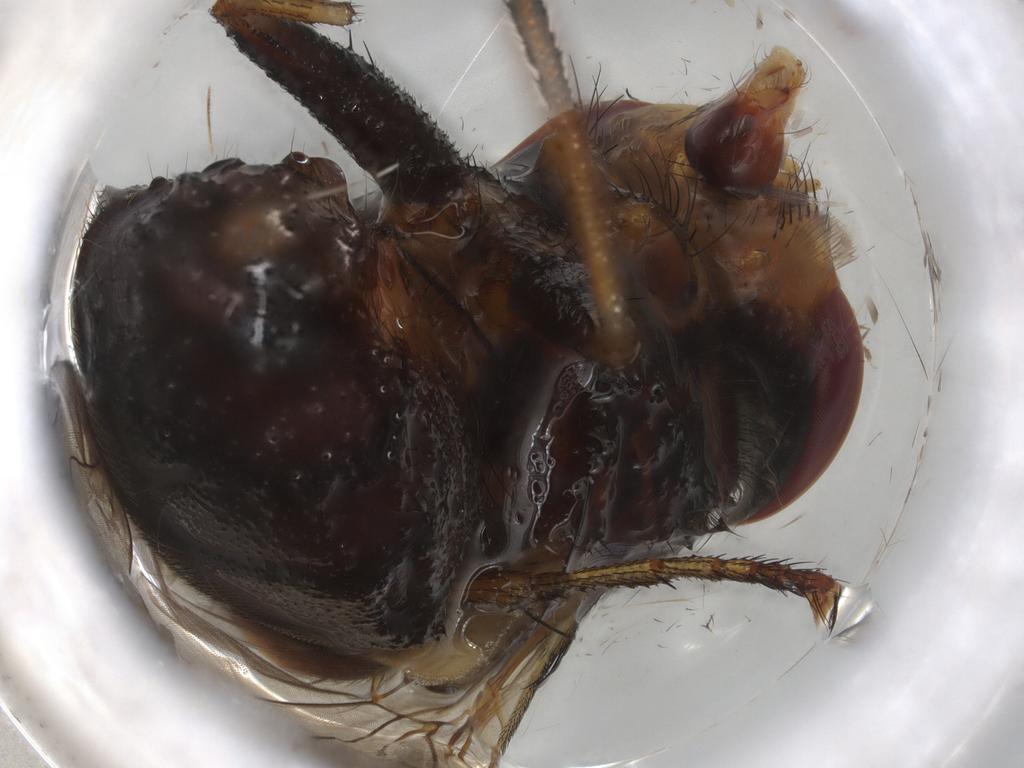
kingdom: Animalia
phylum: Arthropoda
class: Insecta
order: Diptera
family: Calliphoridae
